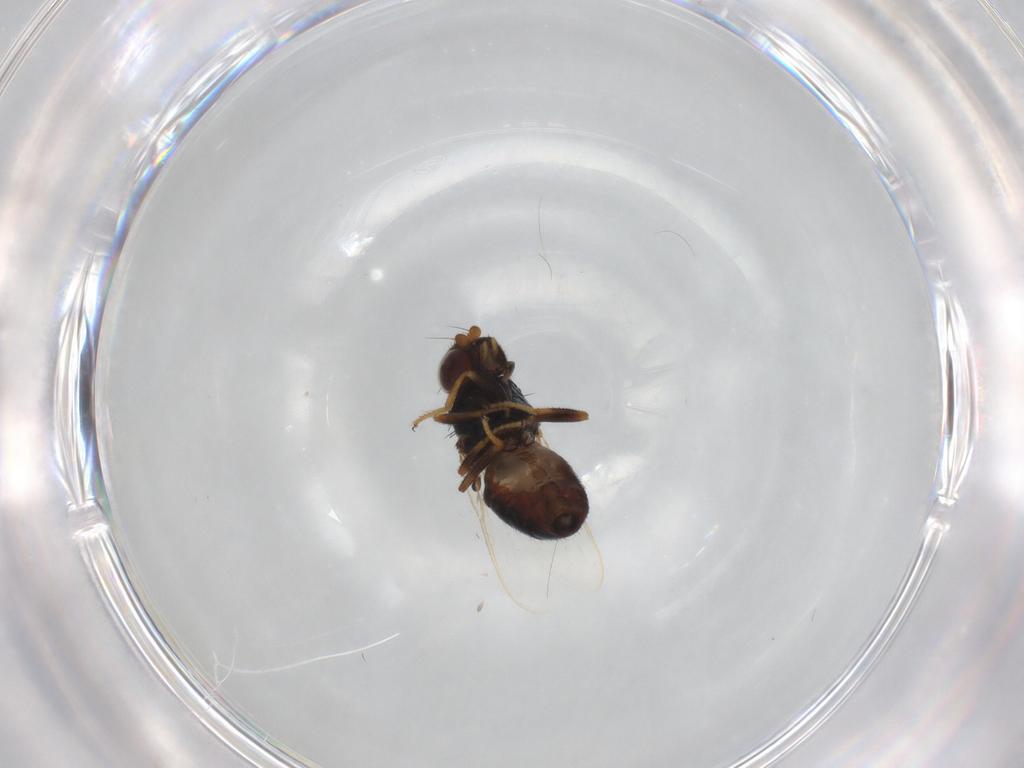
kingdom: Animalia
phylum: Arthropoda
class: Insecta
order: Diptera
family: Chloropidae
